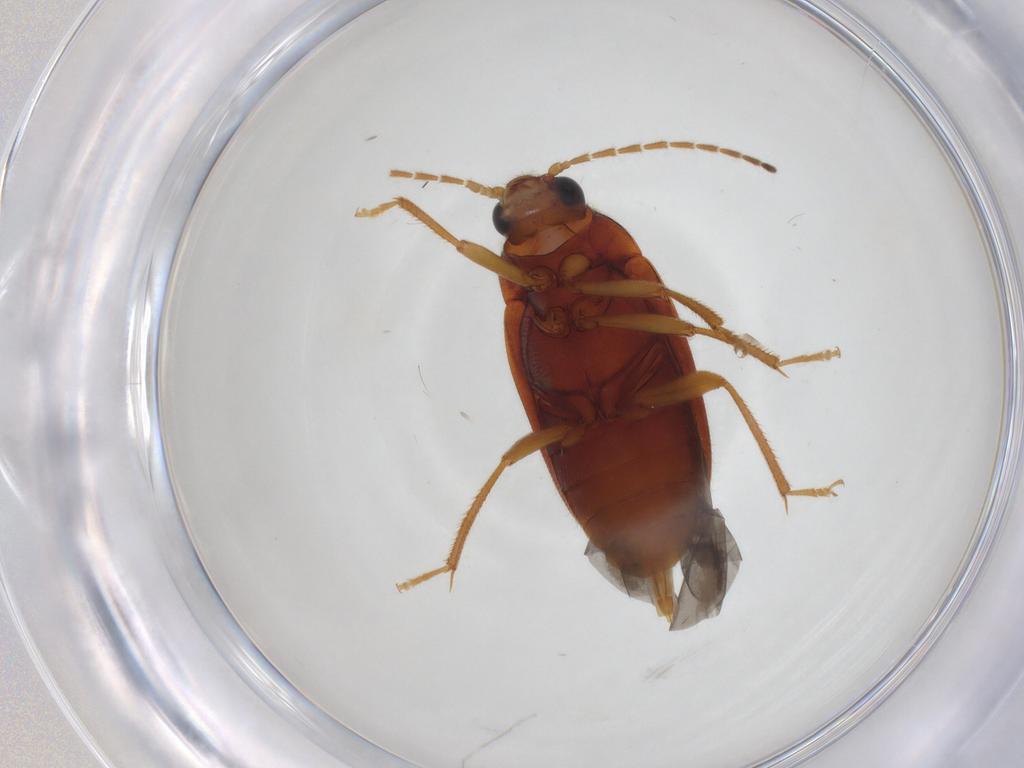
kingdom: Animalia
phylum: Arthropoda
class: Insecta
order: Coleoptera
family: Ptilodactylidae
